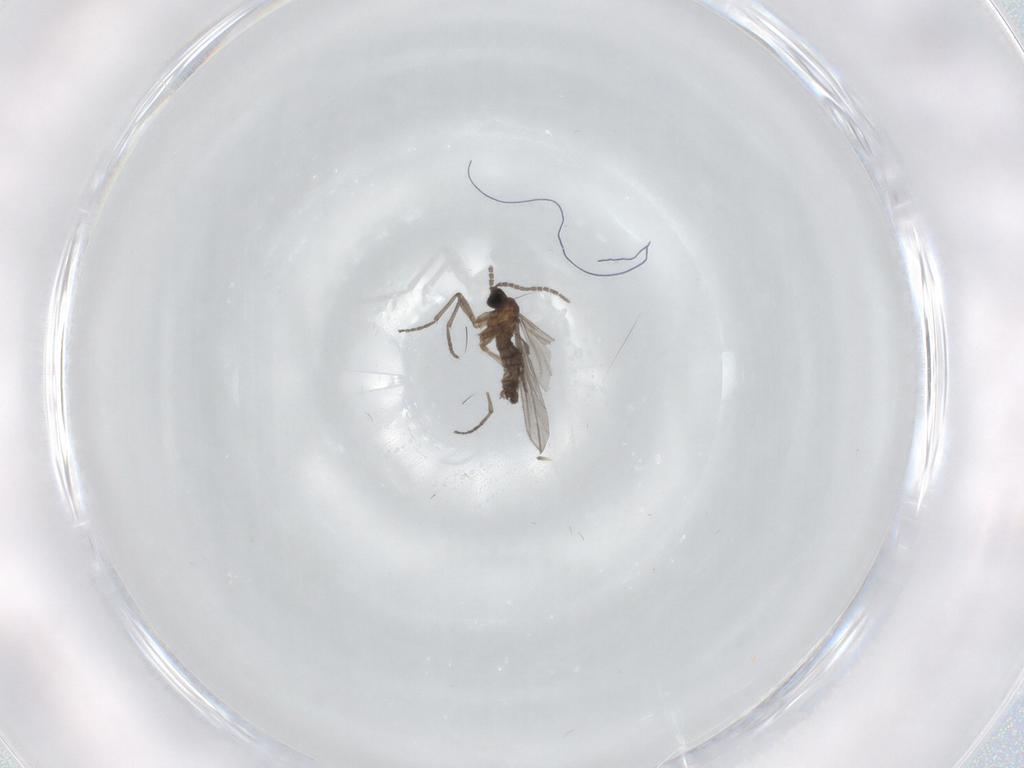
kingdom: Animalia
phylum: Arthropoda
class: Insecta
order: Diptera
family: Sciaridae
